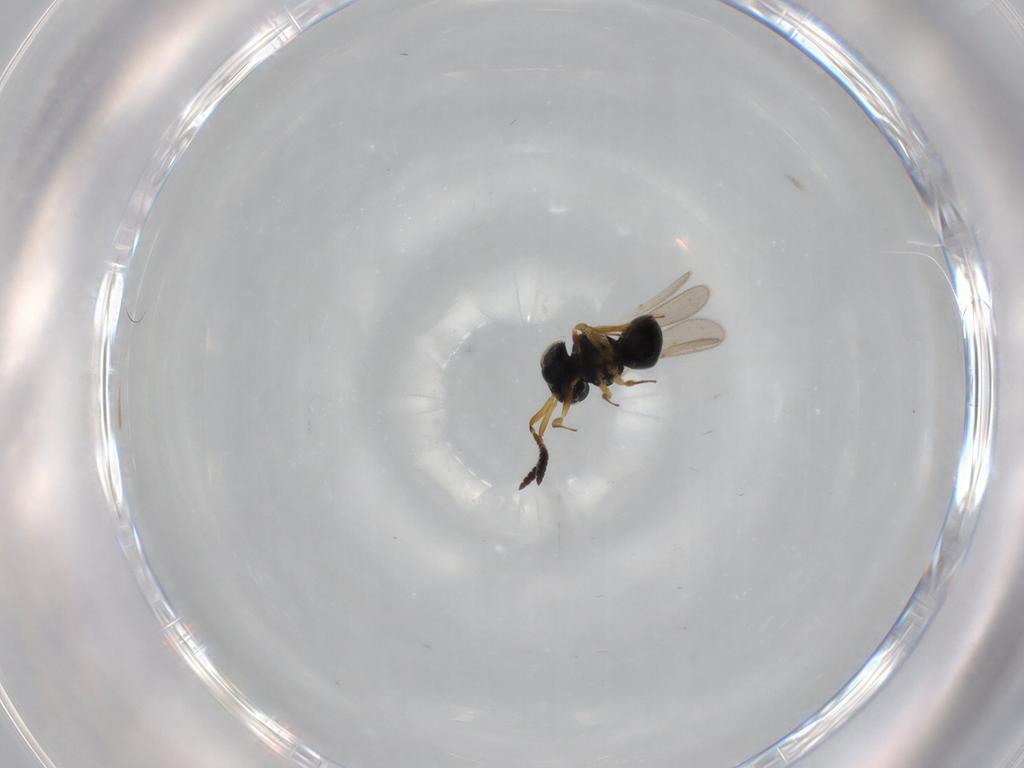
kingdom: Animalia
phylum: Arthropoda
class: Insecta
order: Hymenoptera
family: Scelionidae
